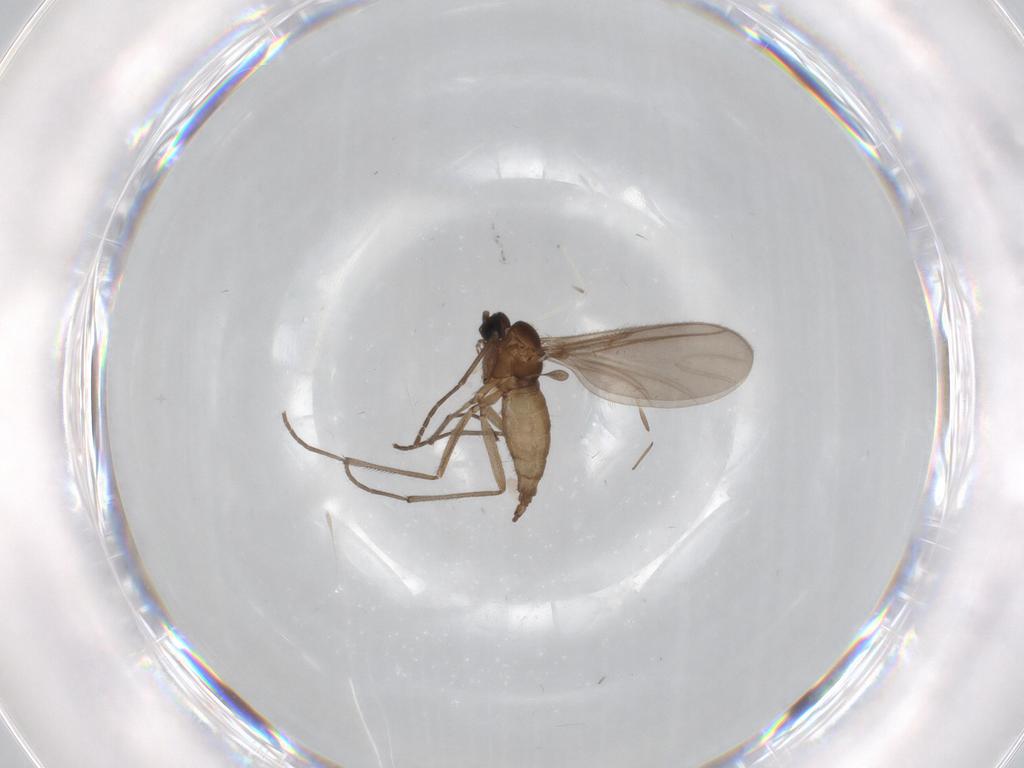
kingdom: Animalia
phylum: Arthropoda
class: Insecta
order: Diptera
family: Cecidomyiidae
